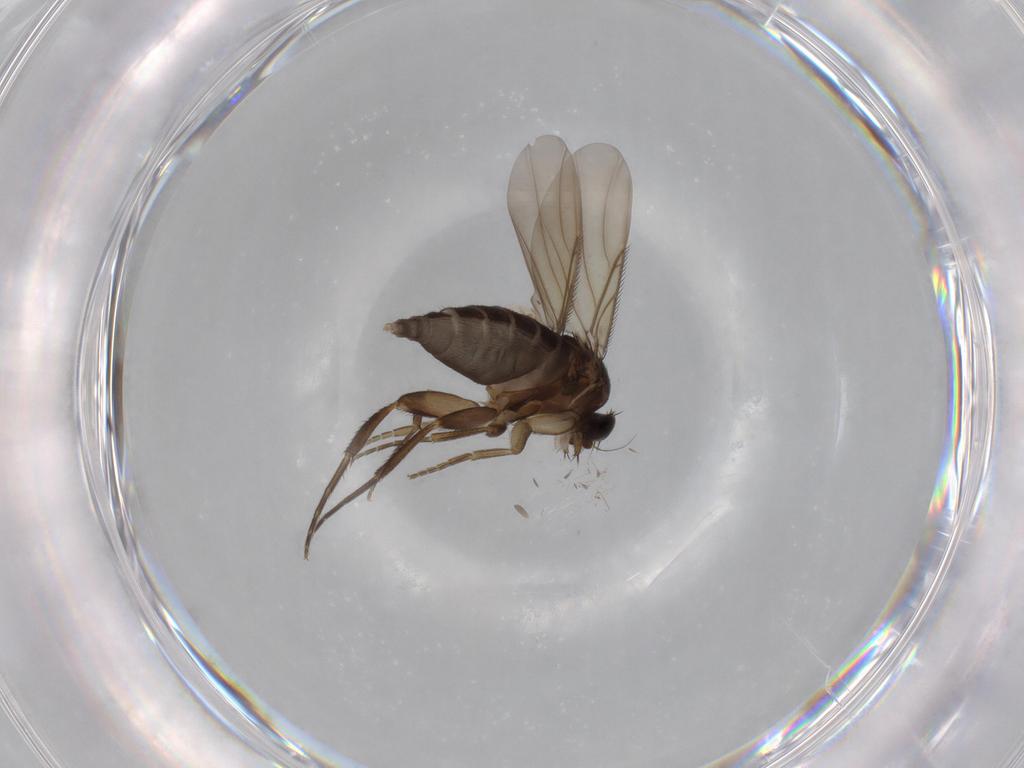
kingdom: Animalia
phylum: Arthropoda
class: Insecta
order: Diptera
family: Phoridae
